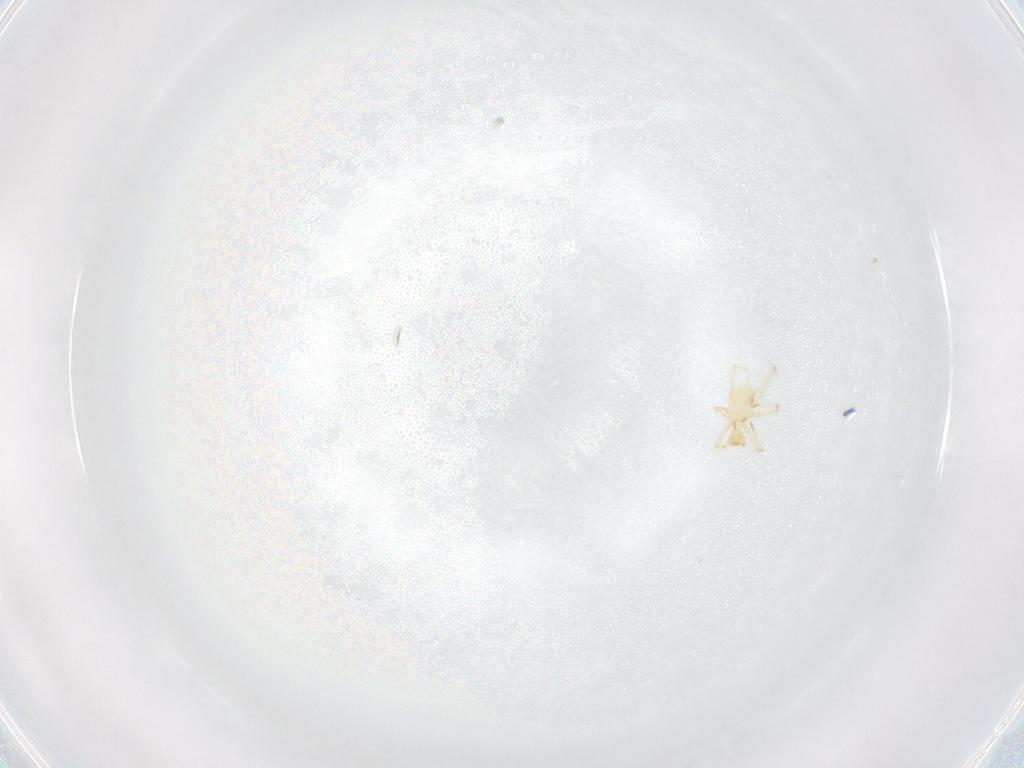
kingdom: Animalia
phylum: Arthropoda
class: Arachnida
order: Trombidiformes
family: Erythraeidae
